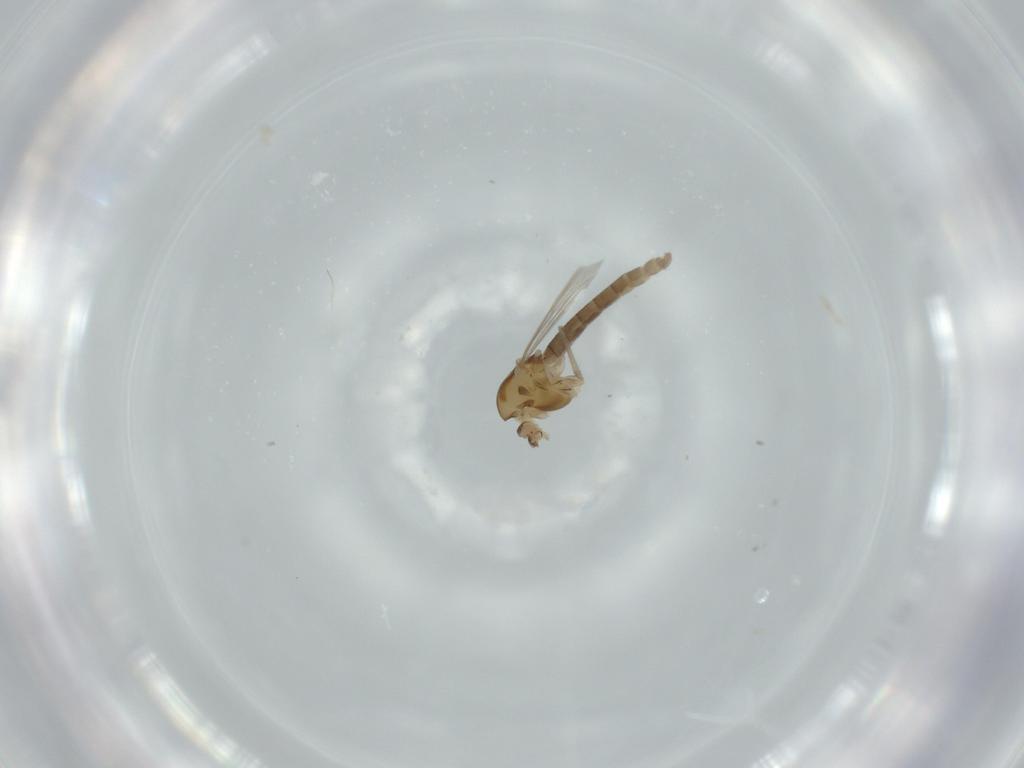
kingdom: Animalia
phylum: Arthropoda
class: Insecta
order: Diptera
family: Chironomidae
